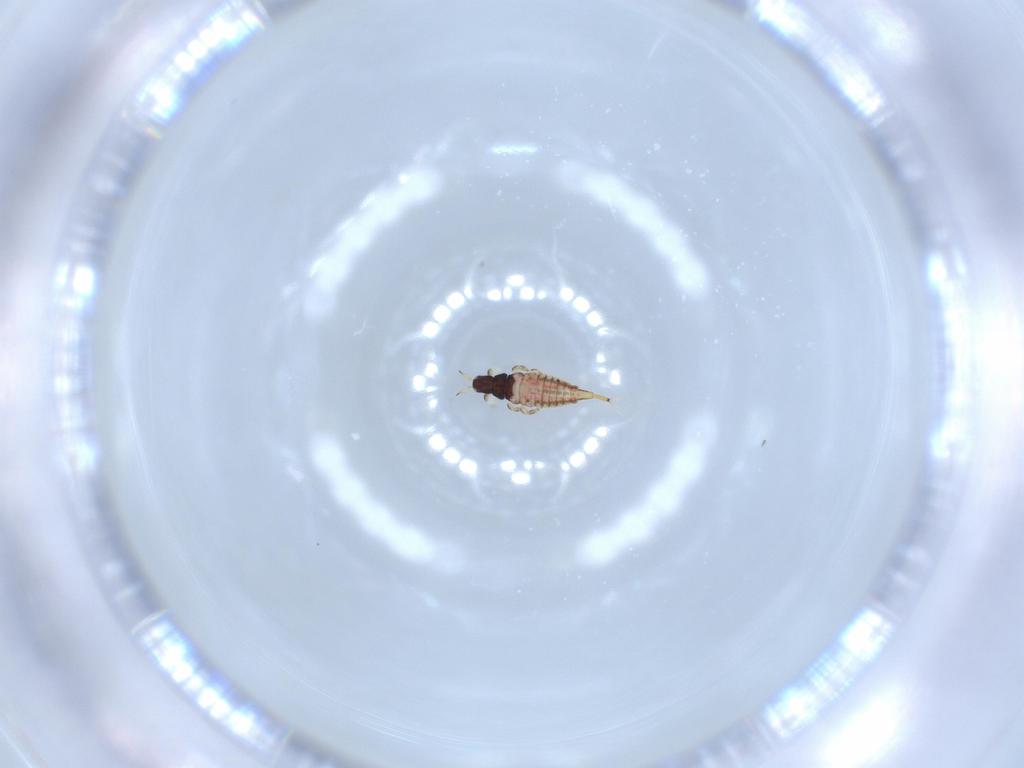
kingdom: Animalia
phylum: Arthropoda
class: Insecta
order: Thysanoptera
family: Phlaeothripidae
